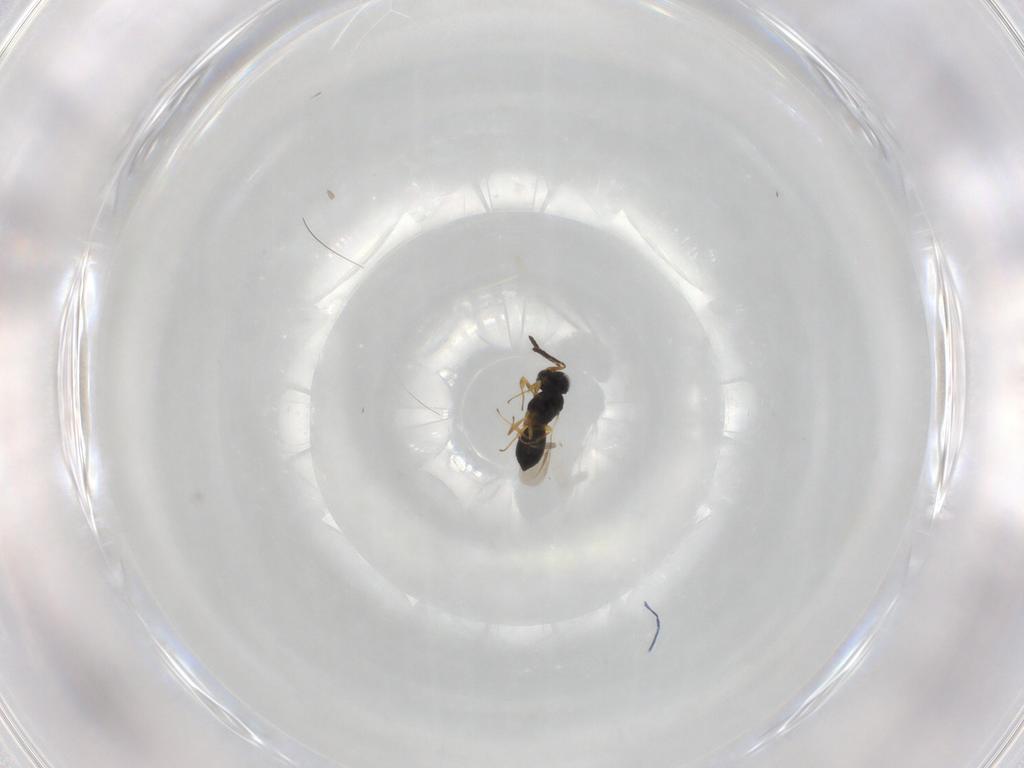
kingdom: Animalia
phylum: Arthropoda
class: Insecta
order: Hymenoptera
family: Scelionidae
